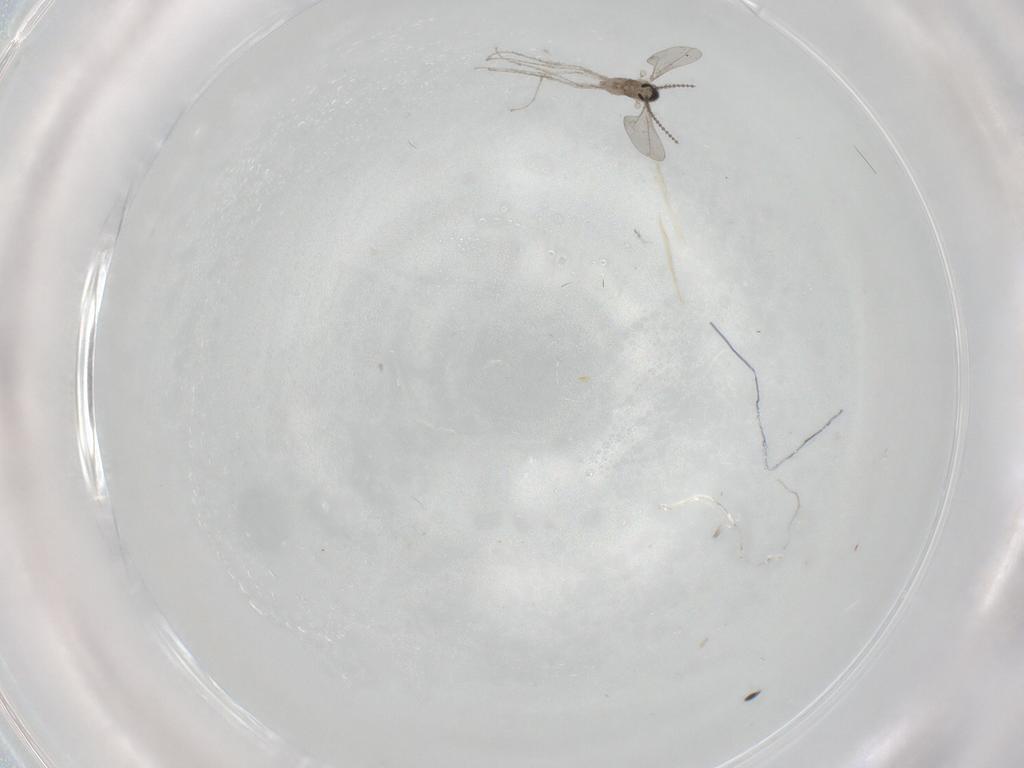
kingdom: Animalia
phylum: Arthropoda
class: Insecta
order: Diptera
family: Cecidomyiidae
